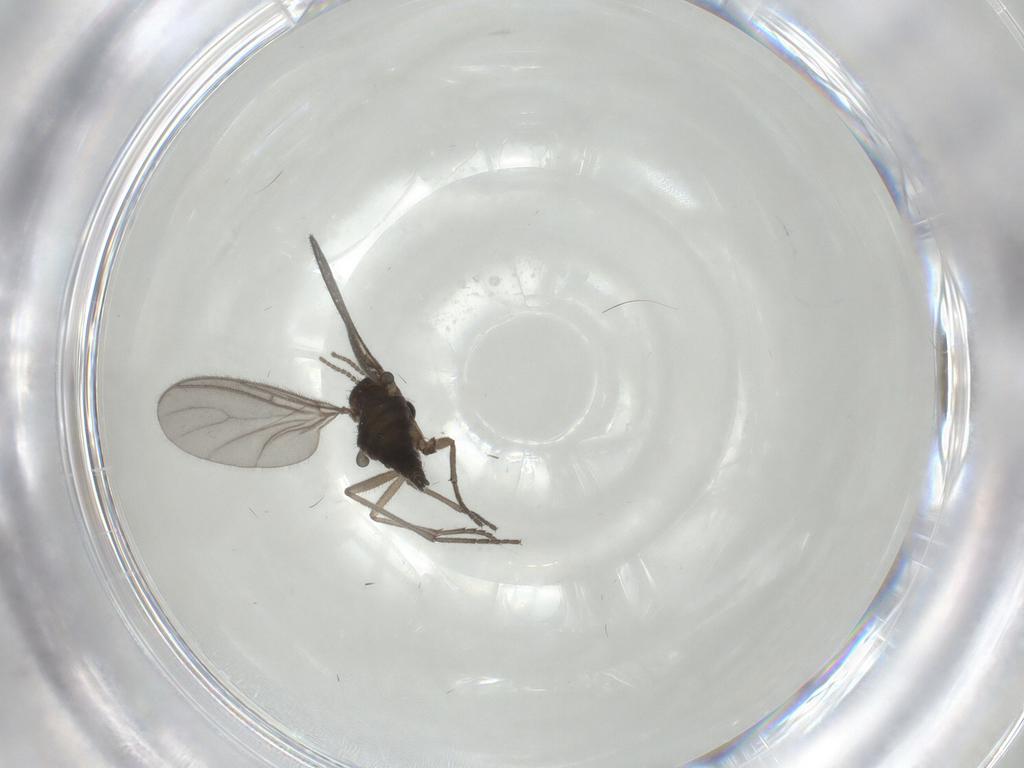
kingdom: Animalia
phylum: Arthropoda
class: Insecta
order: Diptera
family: Sciaridae
